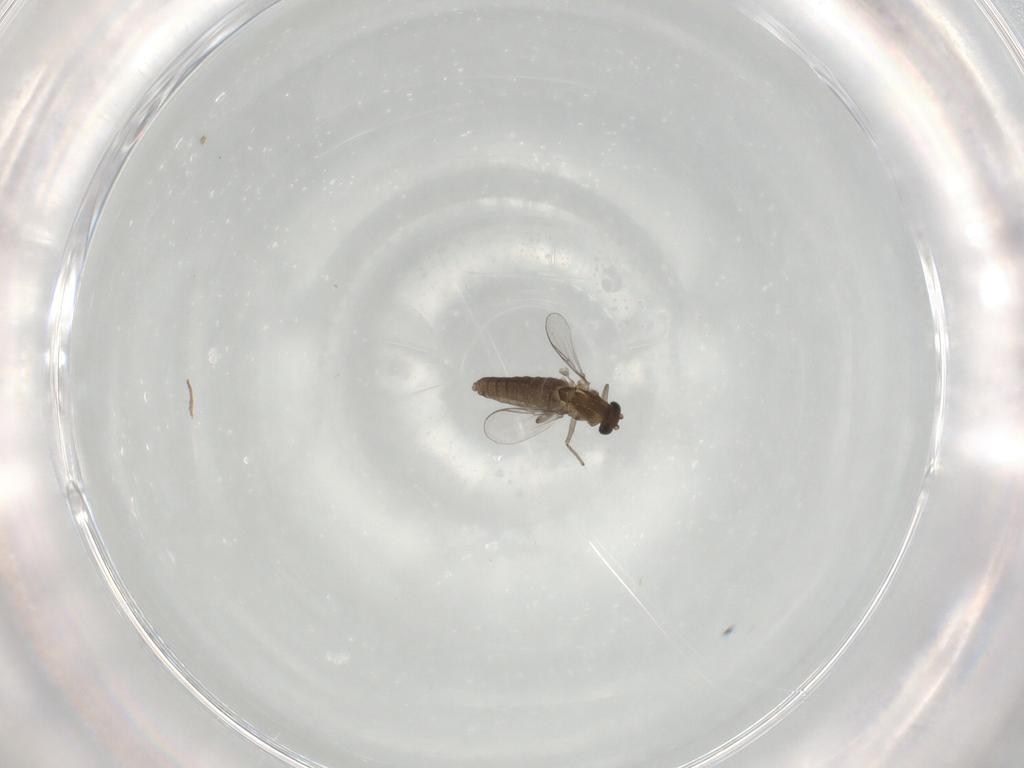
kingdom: Animalia
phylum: Arthropoda
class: Insecta
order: Diptera
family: Chironomidae
